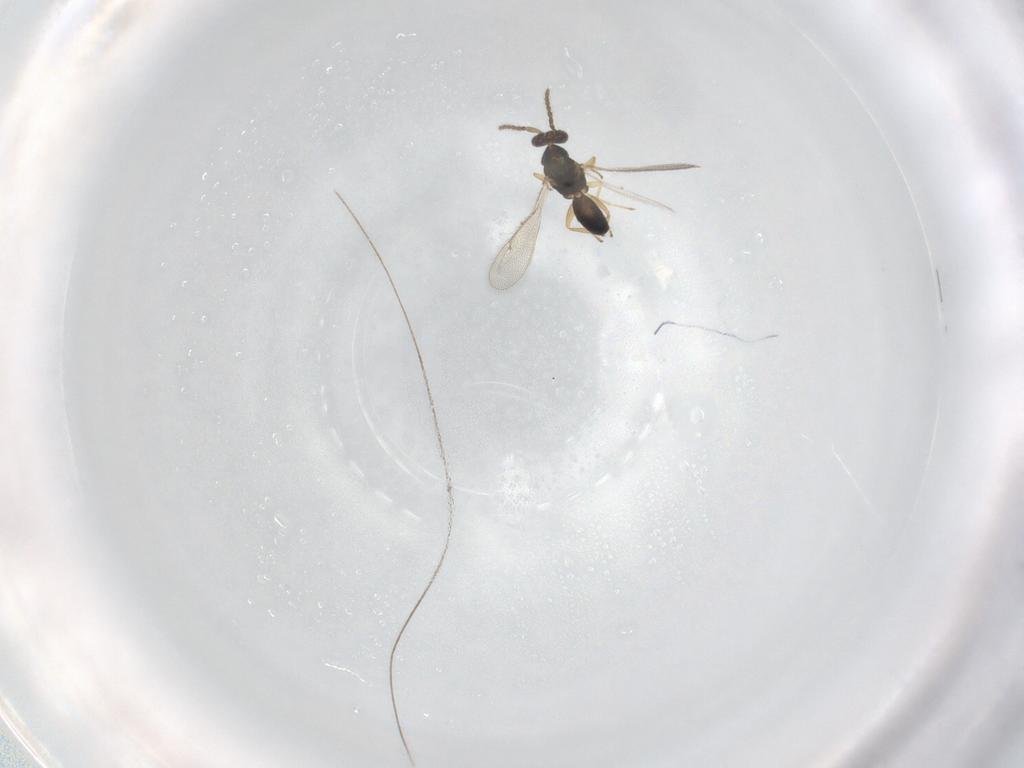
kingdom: Animalia
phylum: Arthropoda
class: Insecta
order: Hymenoptera
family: Eulophidae
